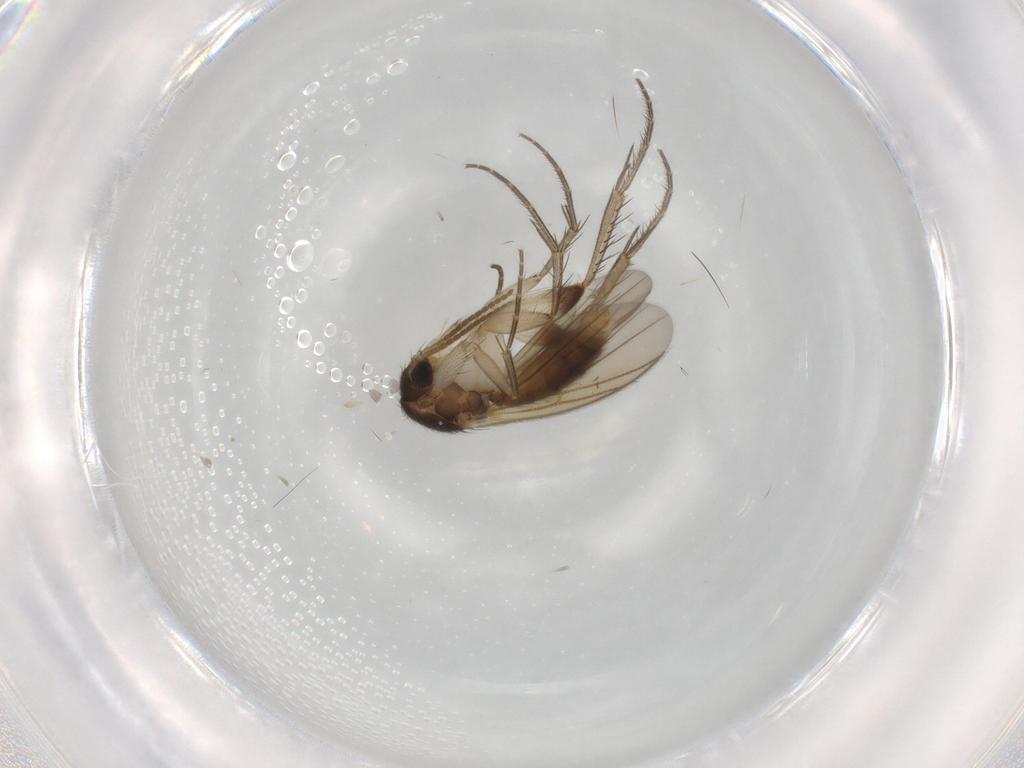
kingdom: Animalia
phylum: Arthropoda
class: Insecta
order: Diptera
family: Mycetophilidae
